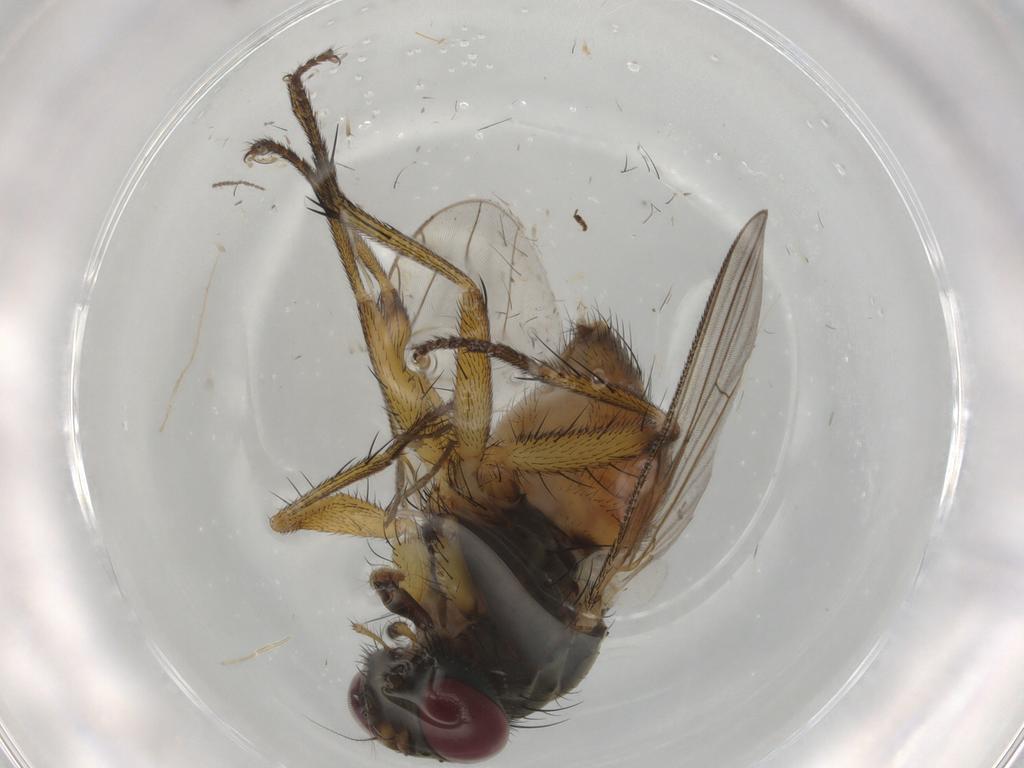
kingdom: Animalia
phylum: Arthropoda
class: Insecta
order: Diptera
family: Muscidae
